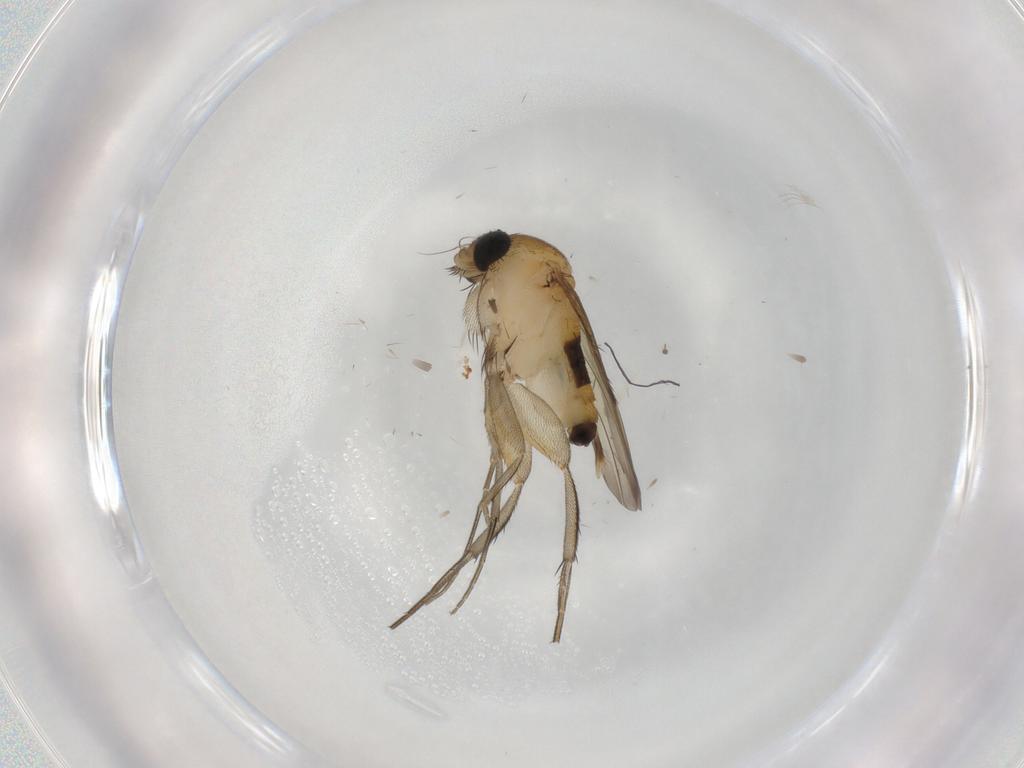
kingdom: Animalia
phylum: Arthropoda
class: Insecta
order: Diptera
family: Phoridae
